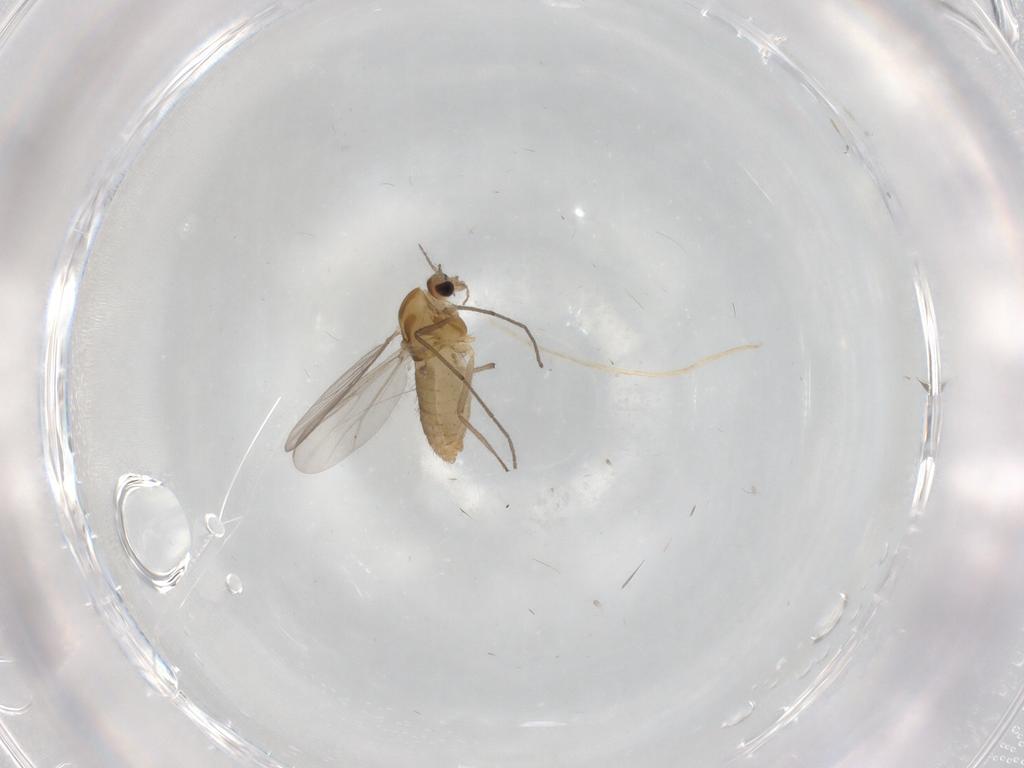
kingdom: Animalia
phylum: Arthropoda
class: Insecta
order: Diptera
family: Chironomidae
